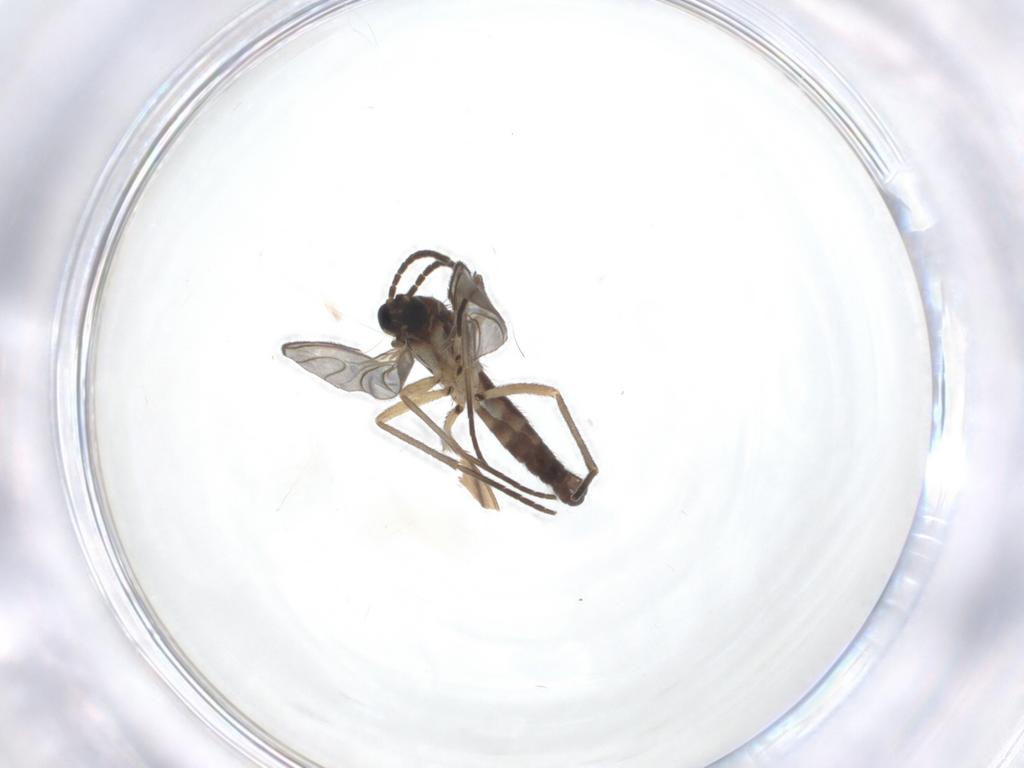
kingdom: Animalia
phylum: Arthropoda
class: Insecta
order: Diptera
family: Sciaridae
